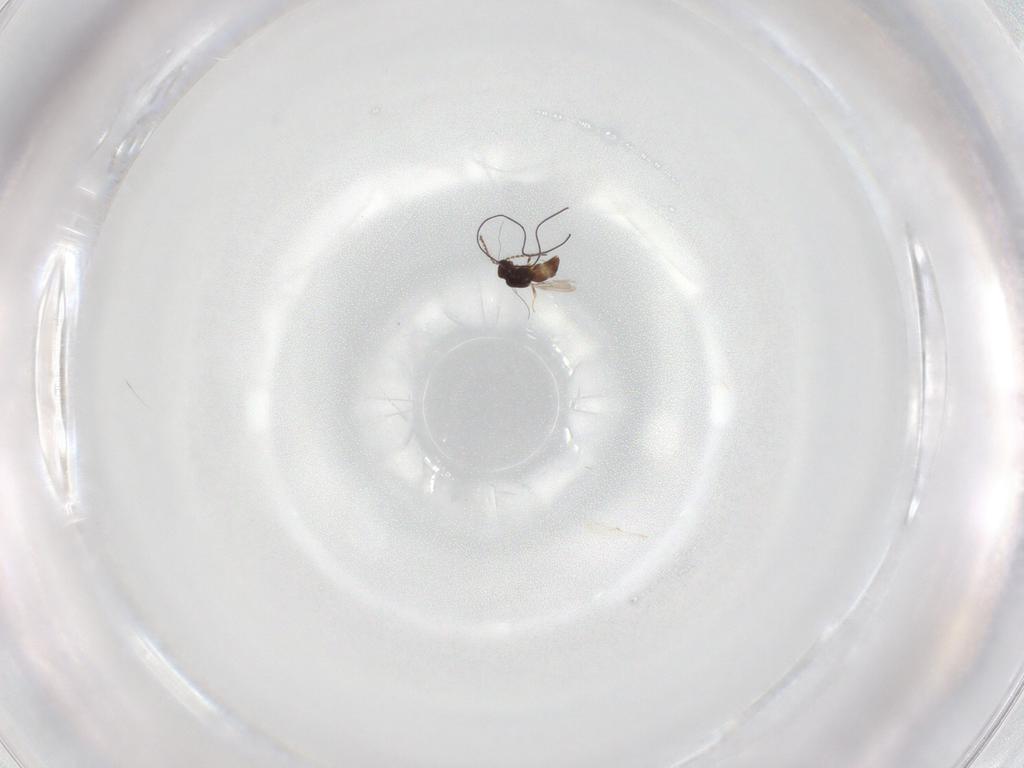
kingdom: Animalia
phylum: Arthropoda
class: Insecta
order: Hymenoptera
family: Scelionidae
